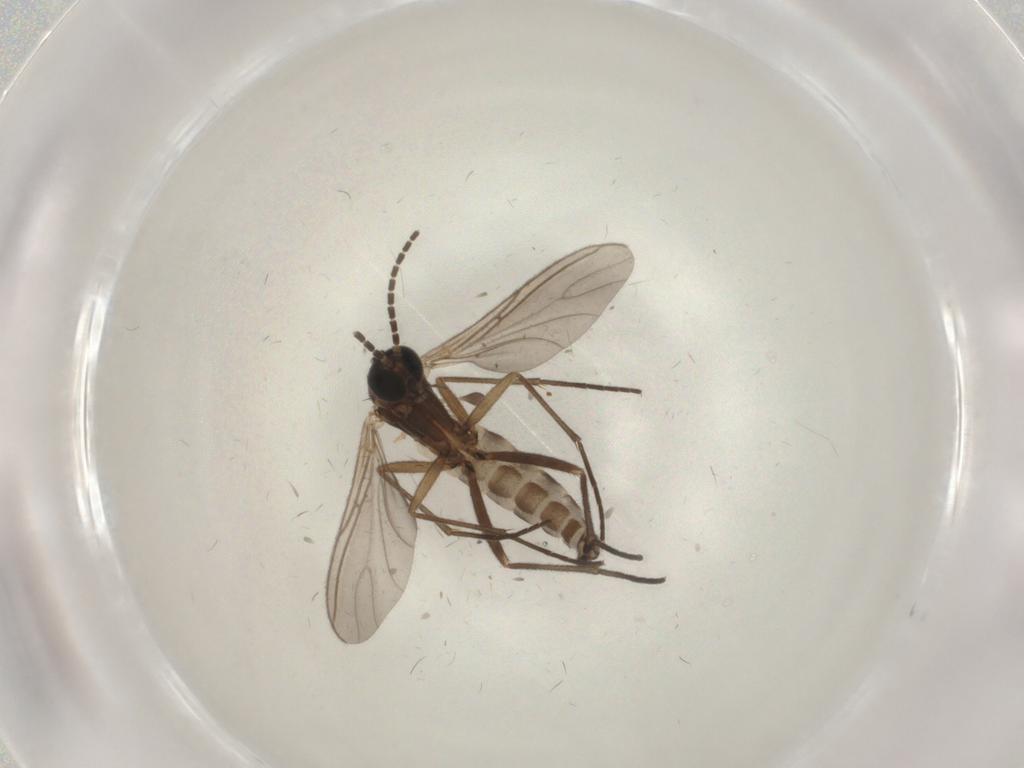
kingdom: Animalia
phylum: Arthropoda
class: Insecta
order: Diptera
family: Sciaridae
